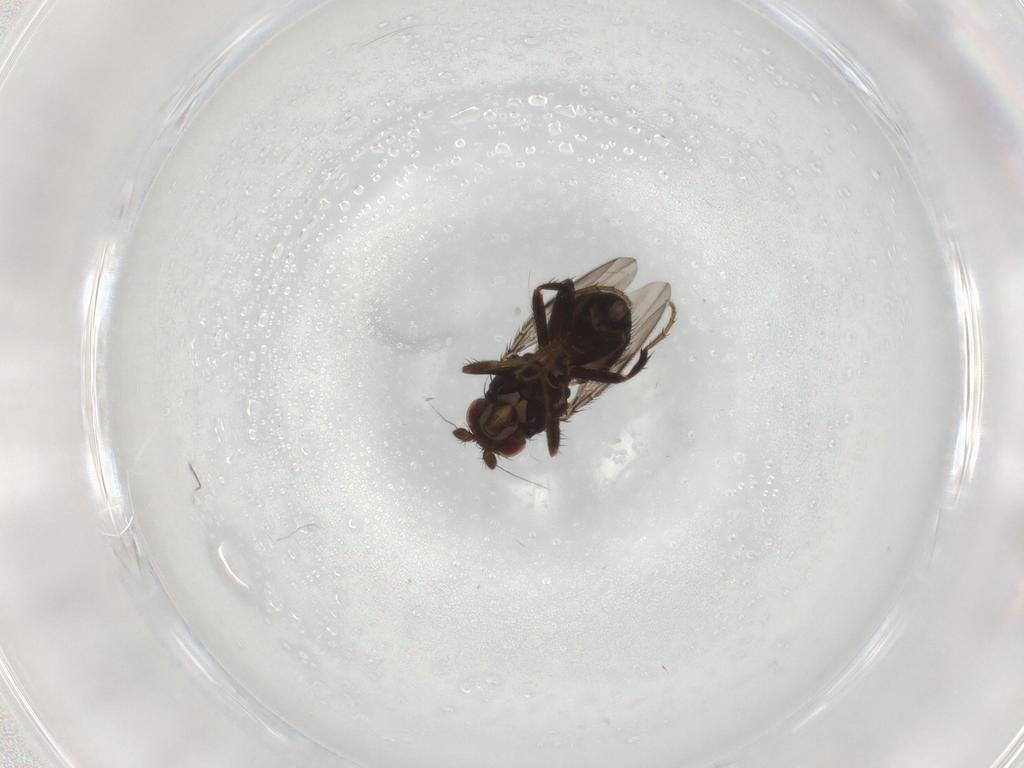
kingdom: Animalia
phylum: Arthropoda
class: Insecta
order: Diptera
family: Sphaeroceridae
